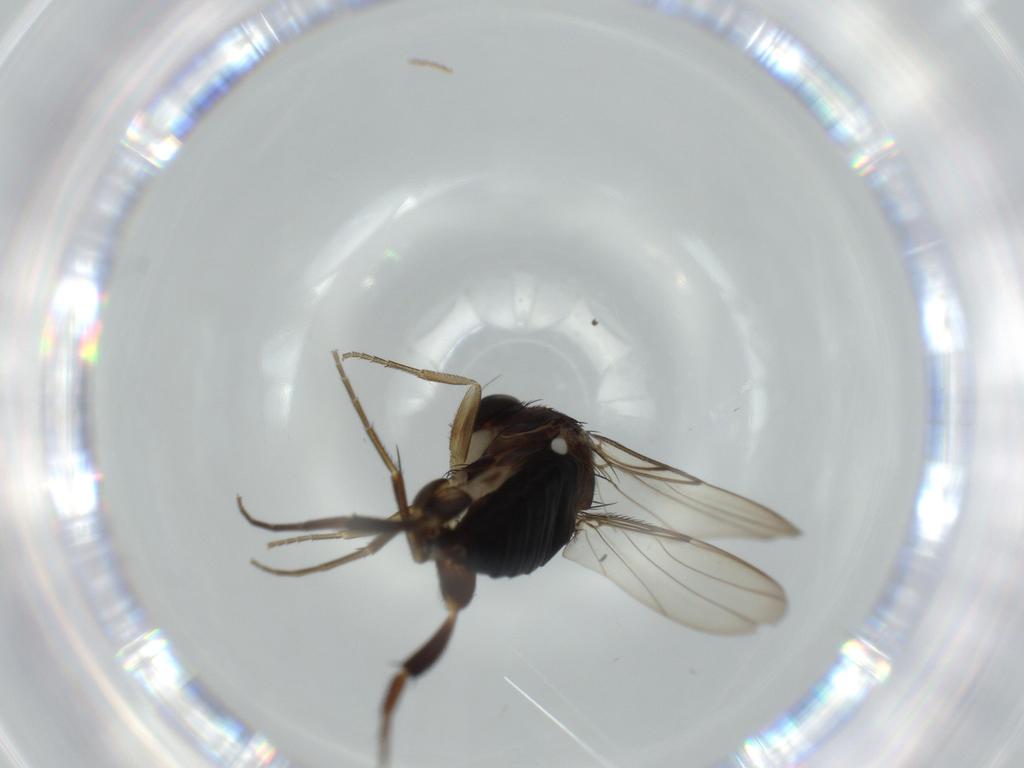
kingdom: Animalia
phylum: Arthropoda
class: Insecta
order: Diptera
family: Phoridae
